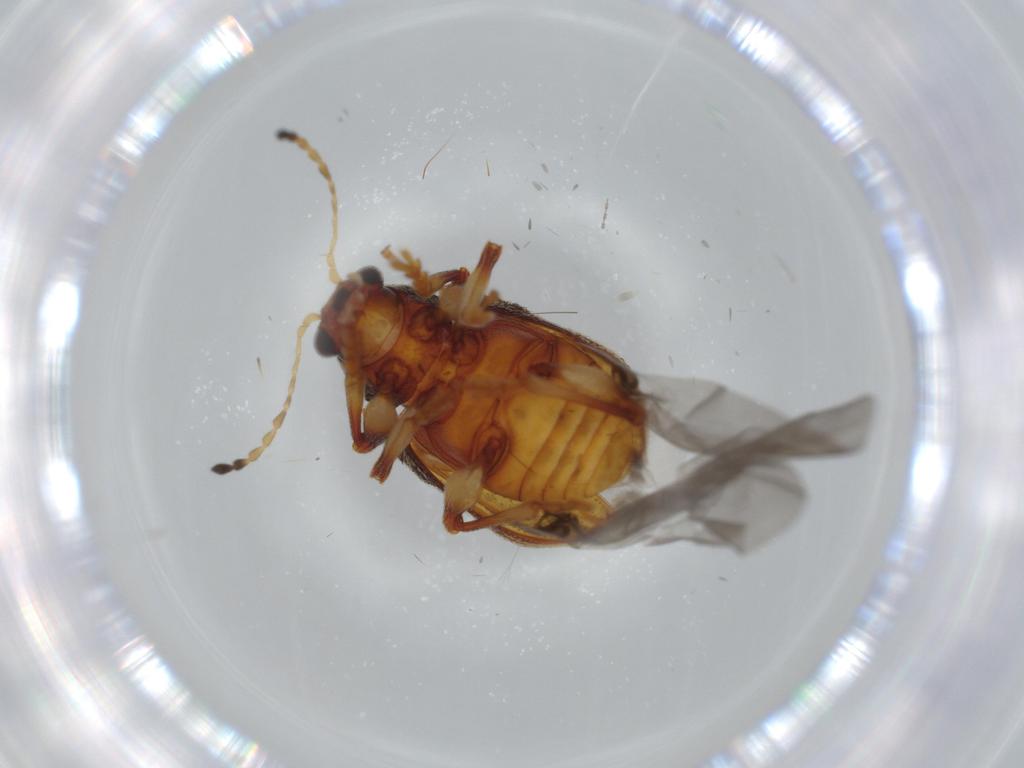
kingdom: Animalia
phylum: Arthropoda
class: Insecta
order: Coleoptera
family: Chrysomelidae
